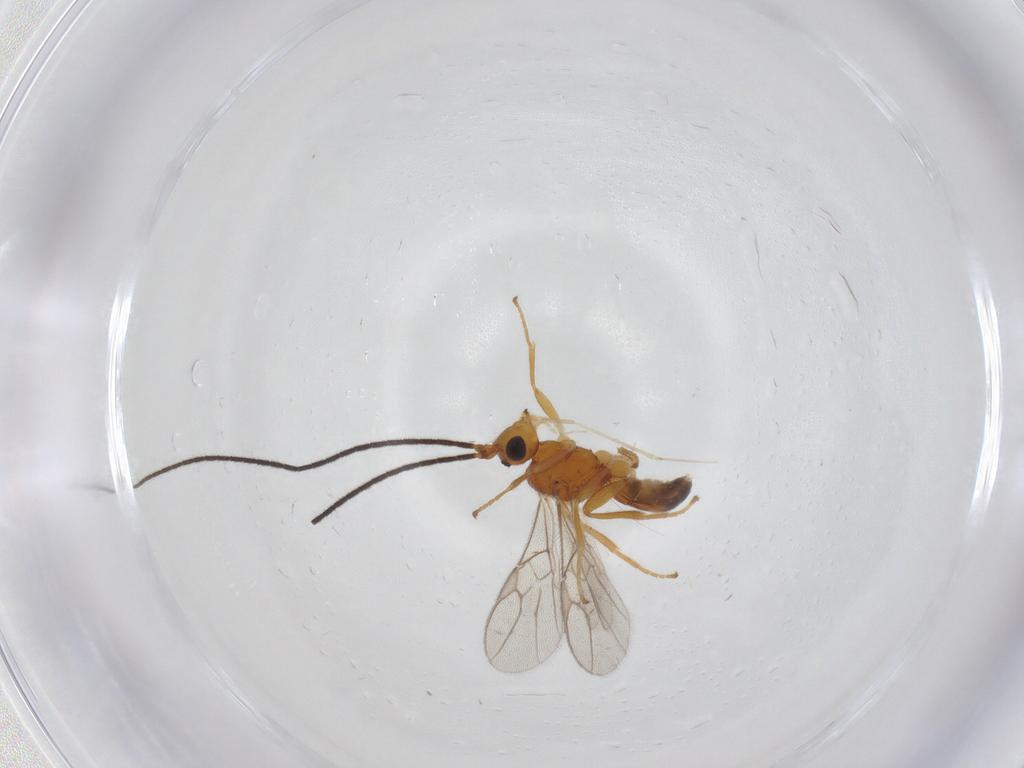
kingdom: Animalia
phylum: Arthropoda
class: Insecta
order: Hymenoptera
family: Braconidae
